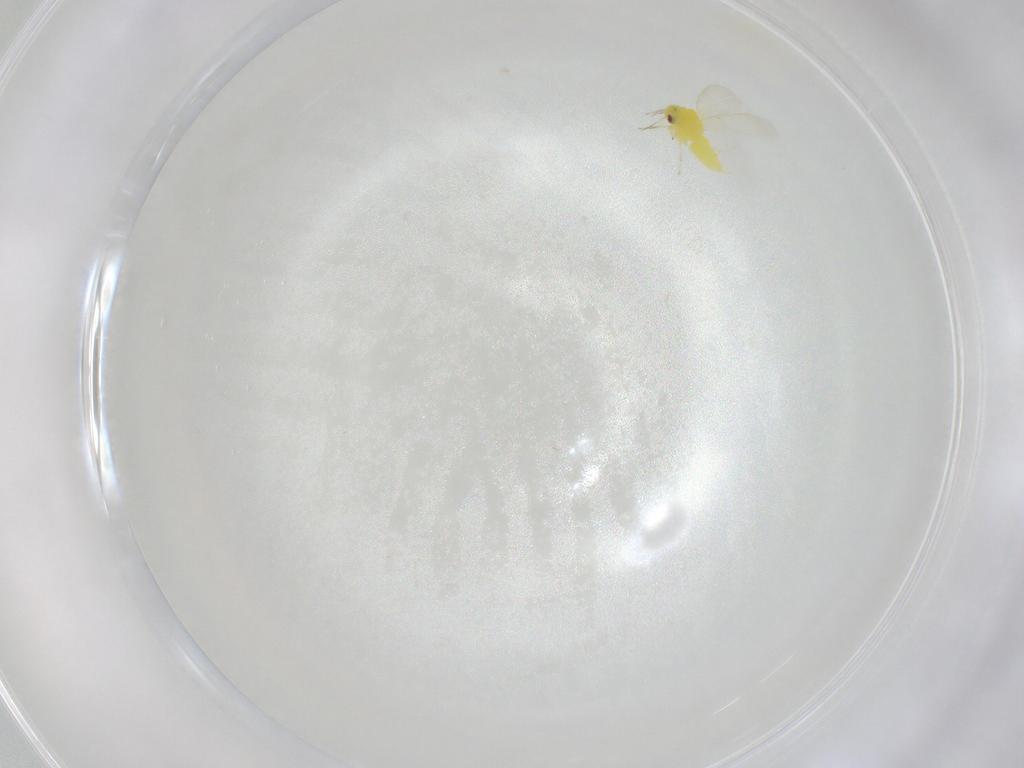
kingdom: Animalia
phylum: Arthropoda
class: Insecta
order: Hemiptera
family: Aleyrodidae
